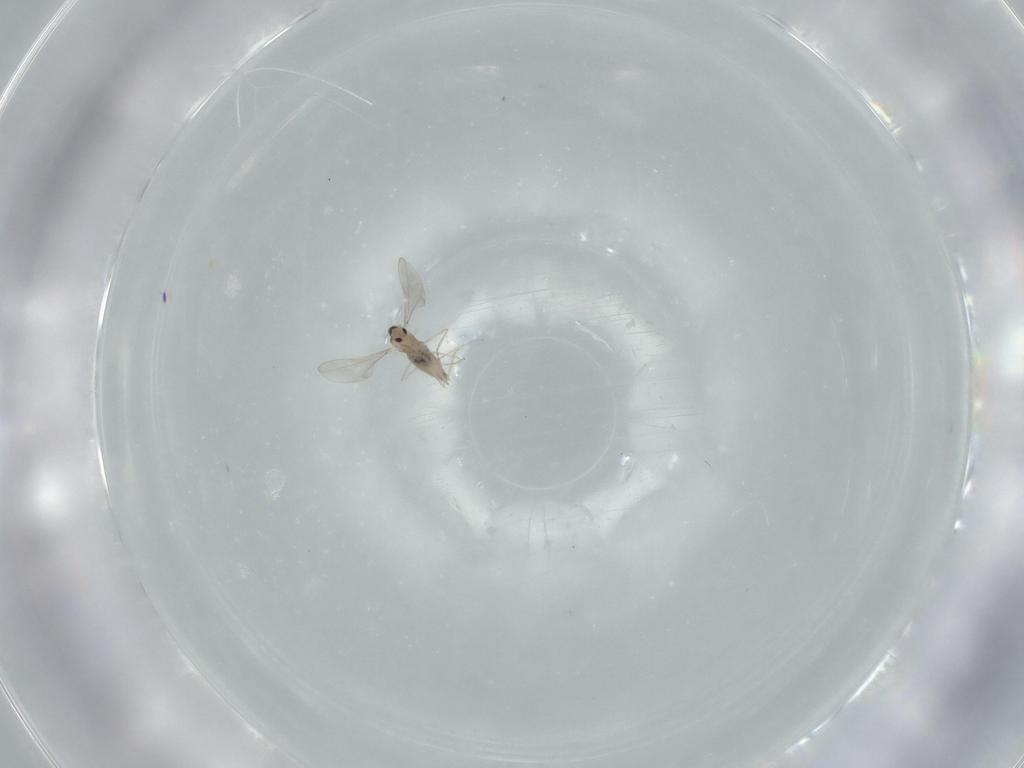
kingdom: Animalia
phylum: Arthropoda
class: Insecta
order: Diptera
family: Cecidomyiidae
